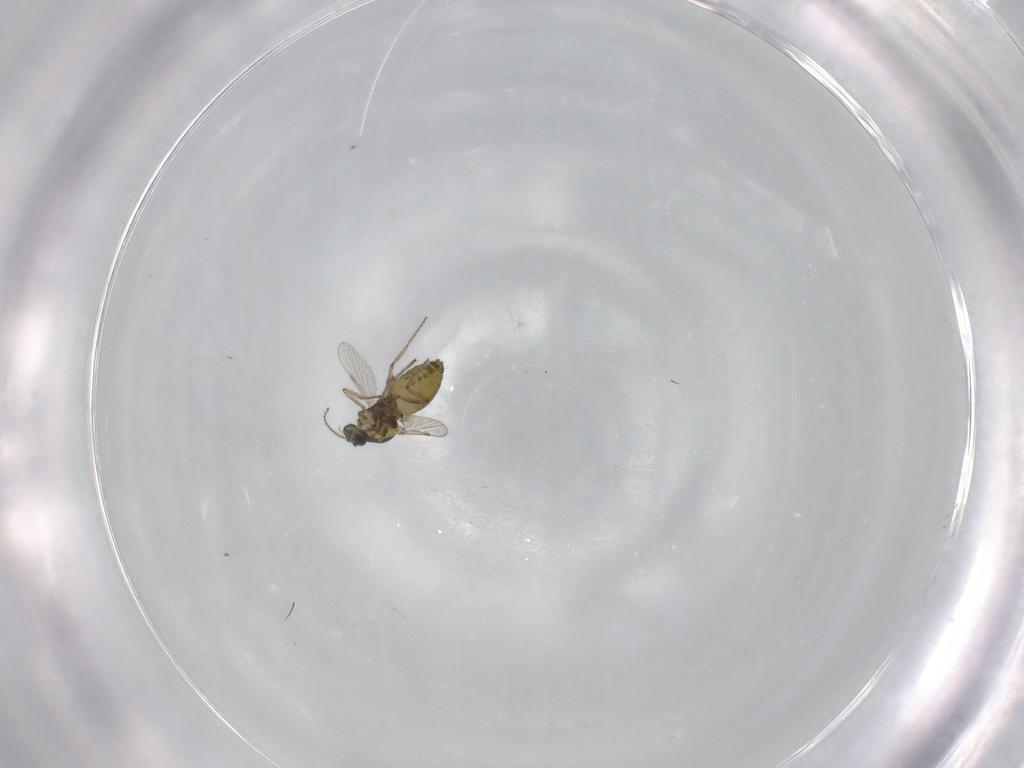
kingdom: Animalia
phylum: Arthropoda
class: Insecta
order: Diptera
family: Ceratopogonidae
